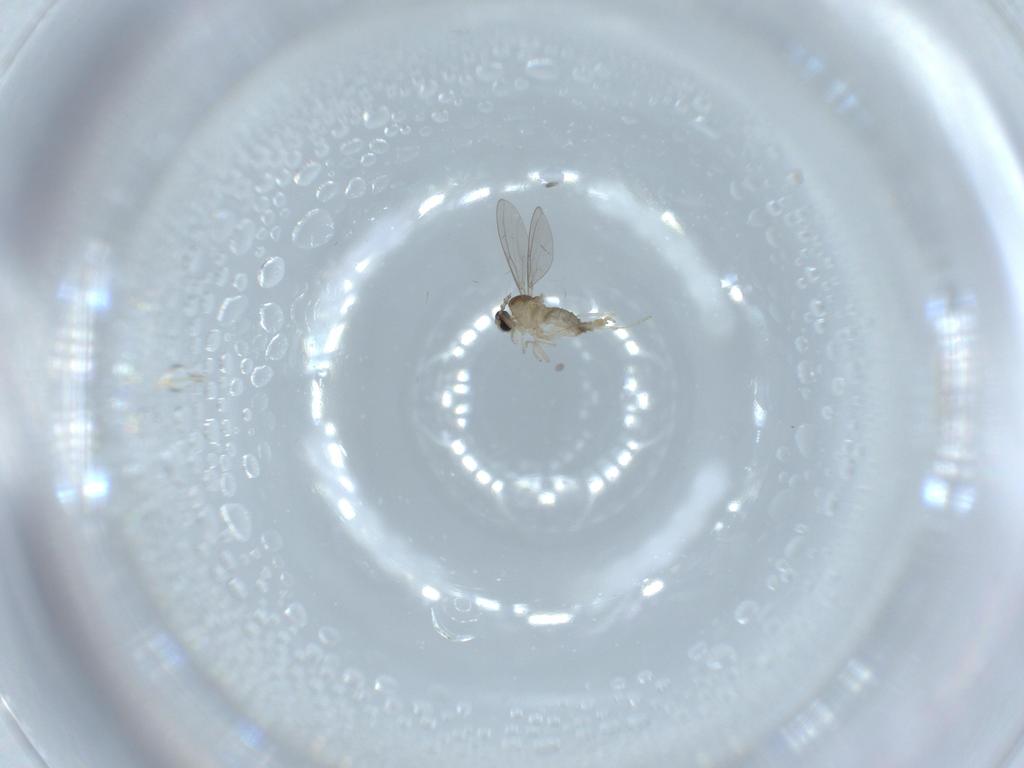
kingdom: Animalia
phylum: Arthropoda
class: Insecta
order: Diptera
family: Cecidomyiidae
